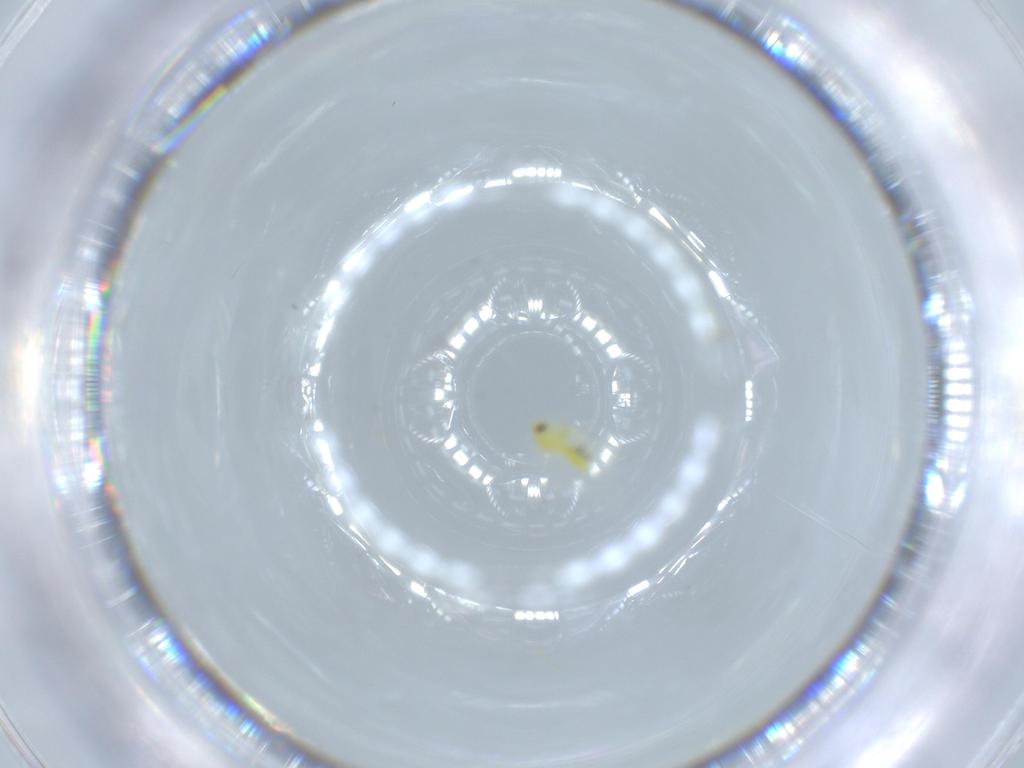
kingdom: Animalia
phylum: Arthropoda
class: Insecta
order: Hemiptera
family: Aleyrodidae
